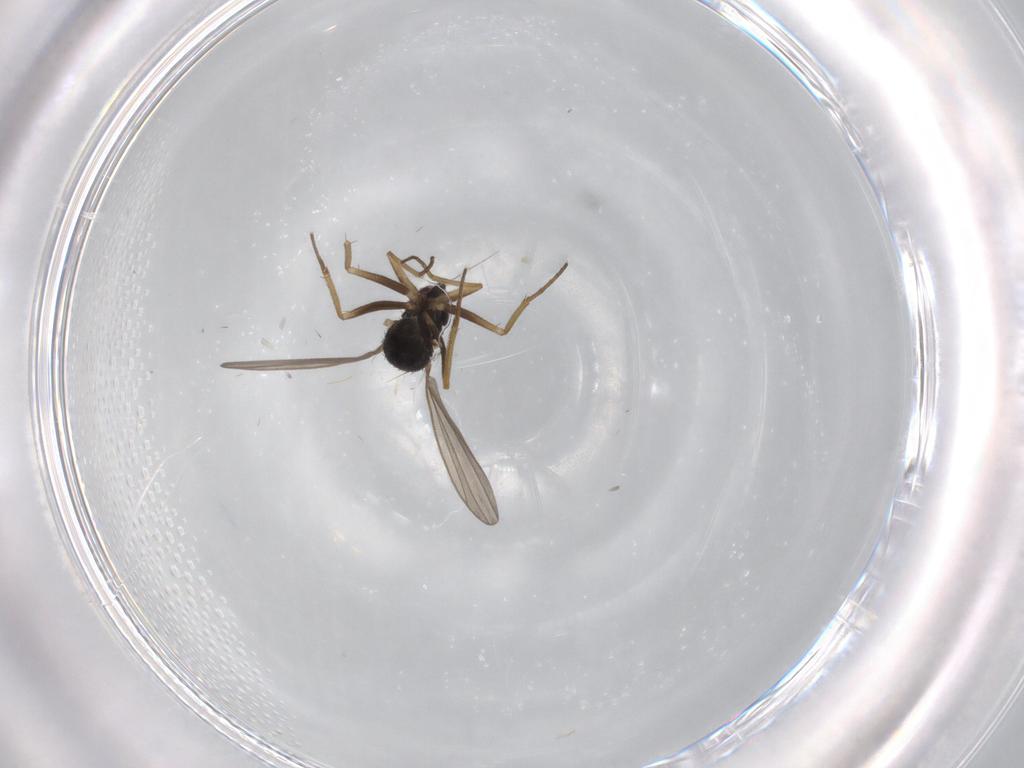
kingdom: Animalia
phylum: Arthropoda
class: Insecta
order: Diptera
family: Dolichopodidae
